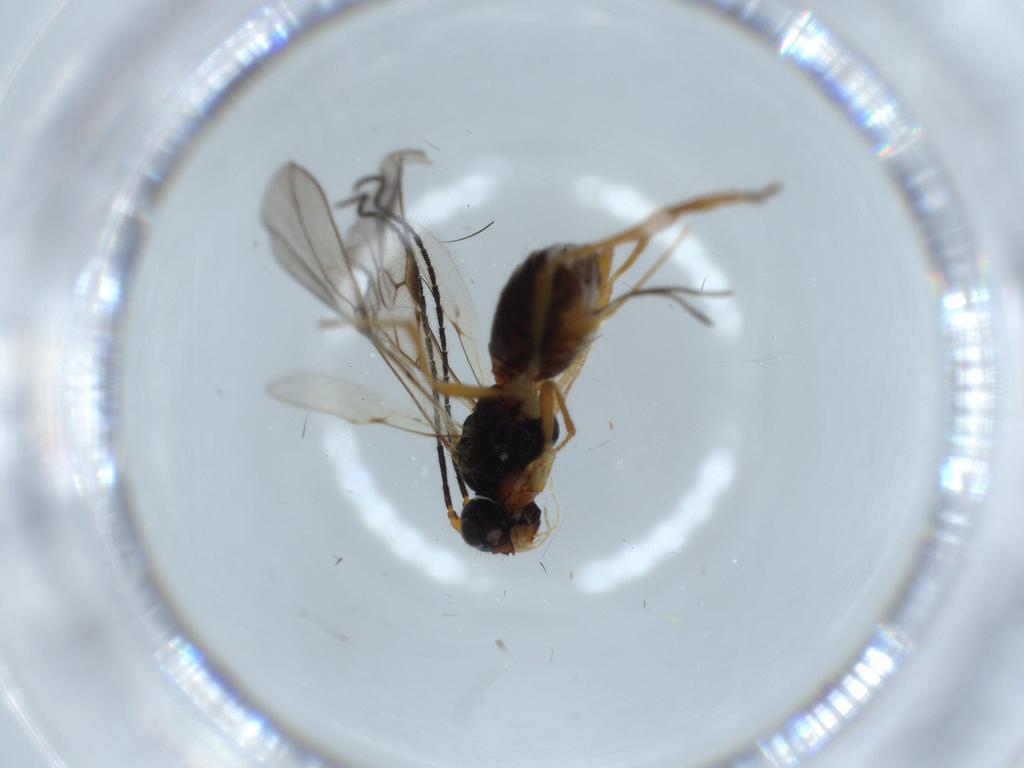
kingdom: Animalia
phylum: Arthropoda
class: Insecta
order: Hymenoptera
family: Braconidae
